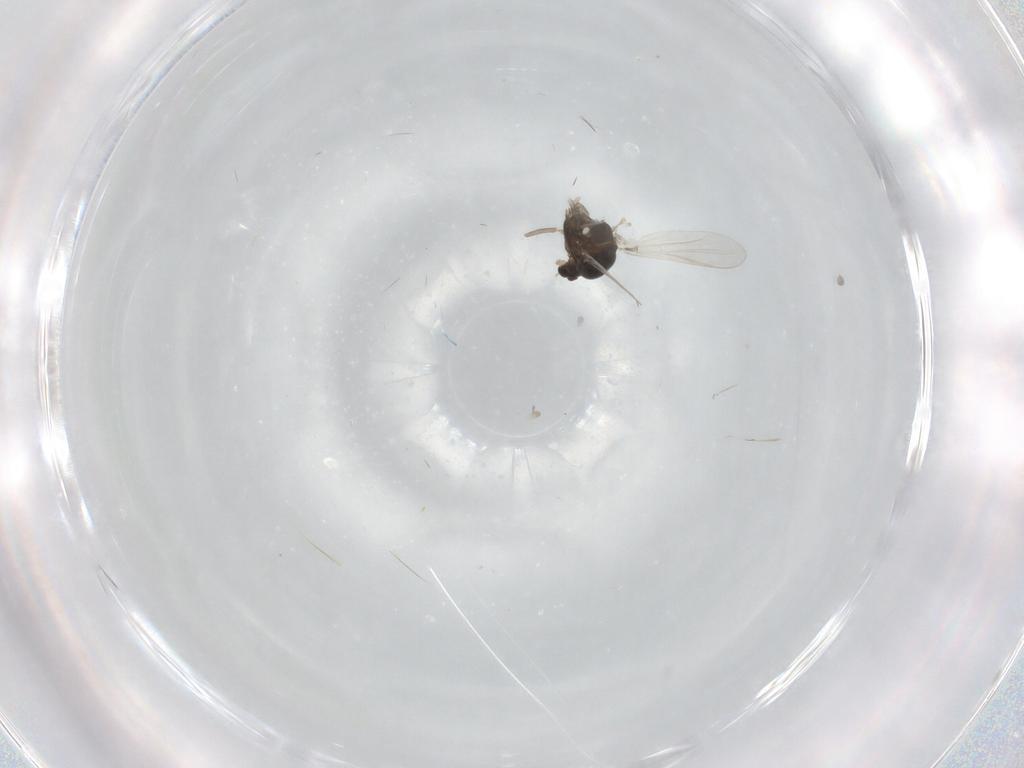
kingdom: Animalia
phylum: Arthropoda
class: Insecta
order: Diptera
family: Chironomidae
